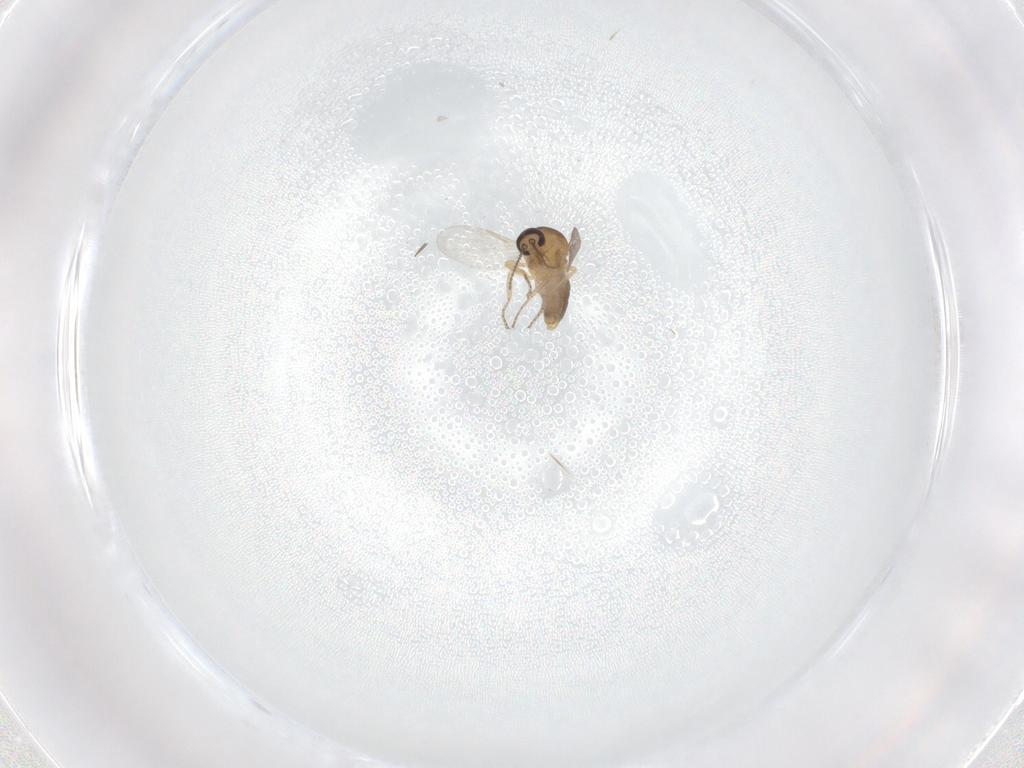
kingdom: Animalia
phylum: Arthropoda
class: Insecta
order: Diptera
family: Ceratopogonidae
